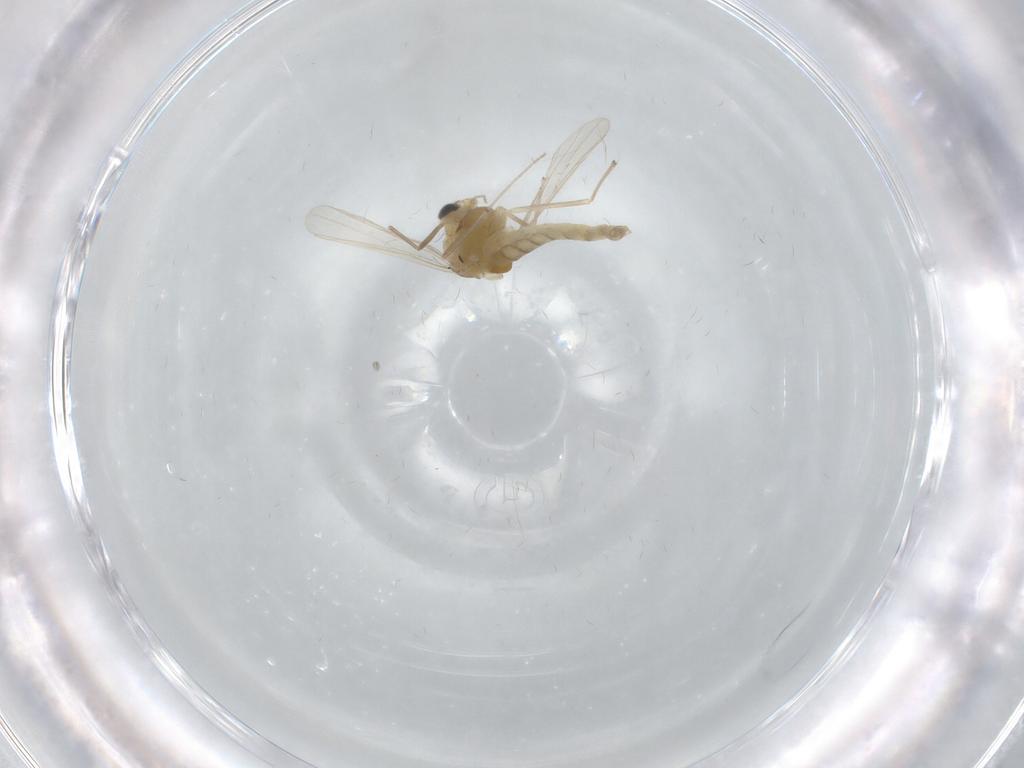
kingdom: Animalia
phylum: Arthropoda
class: Insecta
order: Diptera
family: Chironomidae
